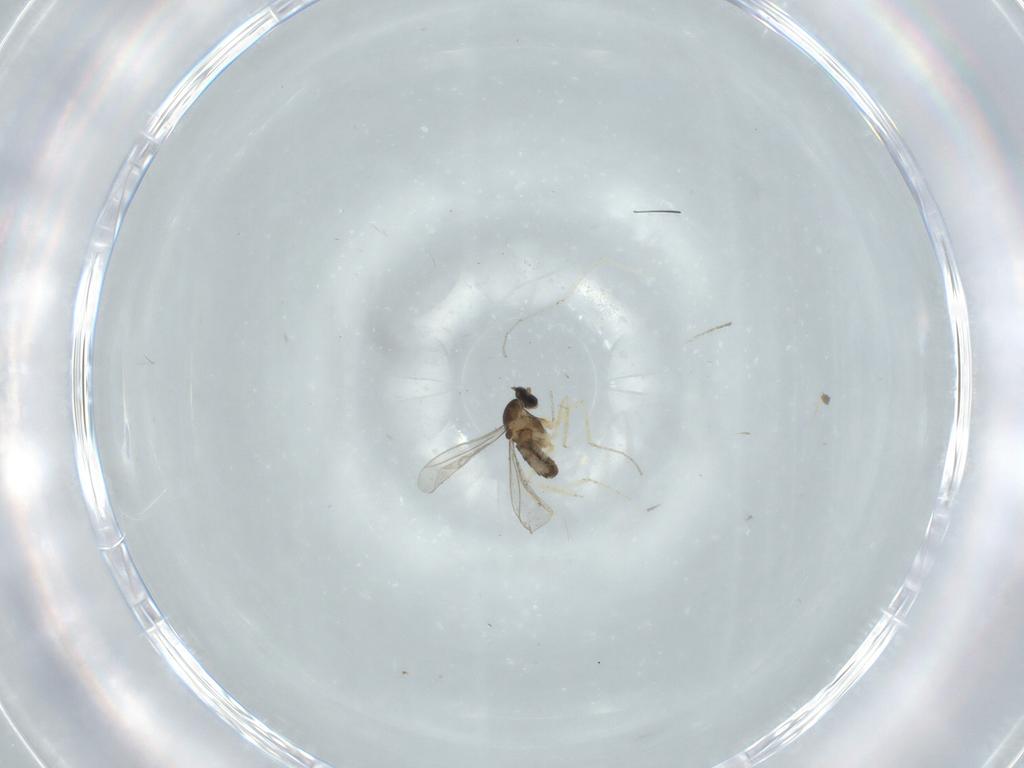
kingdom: Animalia
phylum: Arthropoda
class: Insecta
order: Diptera
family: Cecidomyiidae
